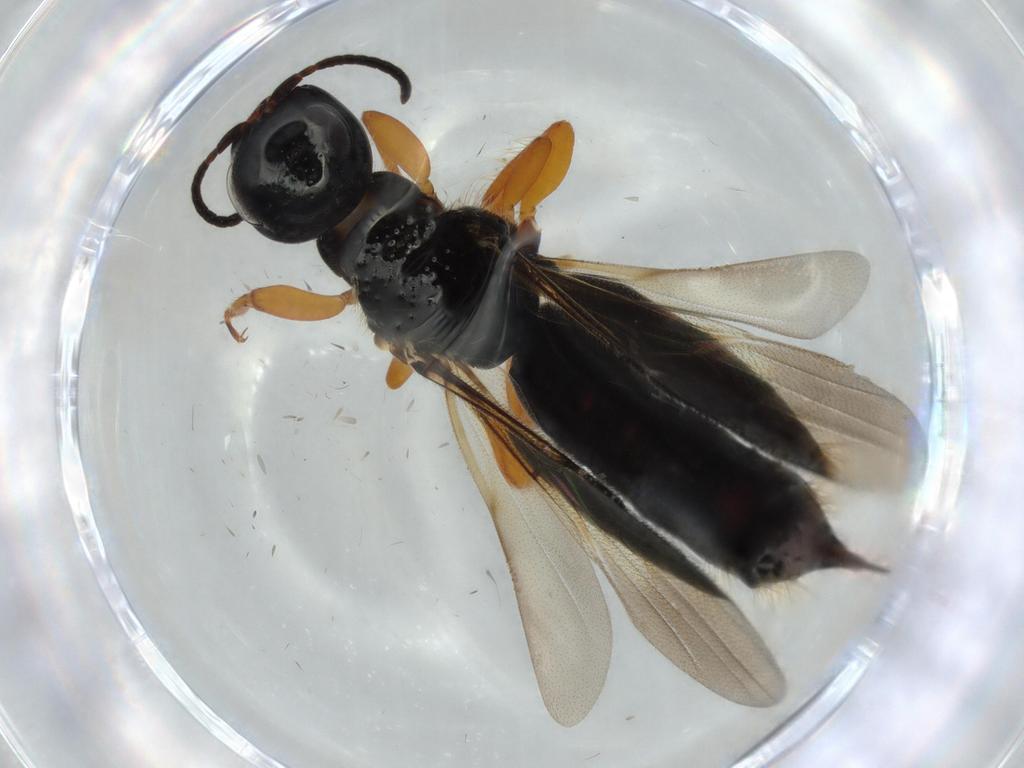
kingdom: Animalia
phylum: Arthropoda
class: Insecta
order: Hymenoptera
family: Scolebythidae
